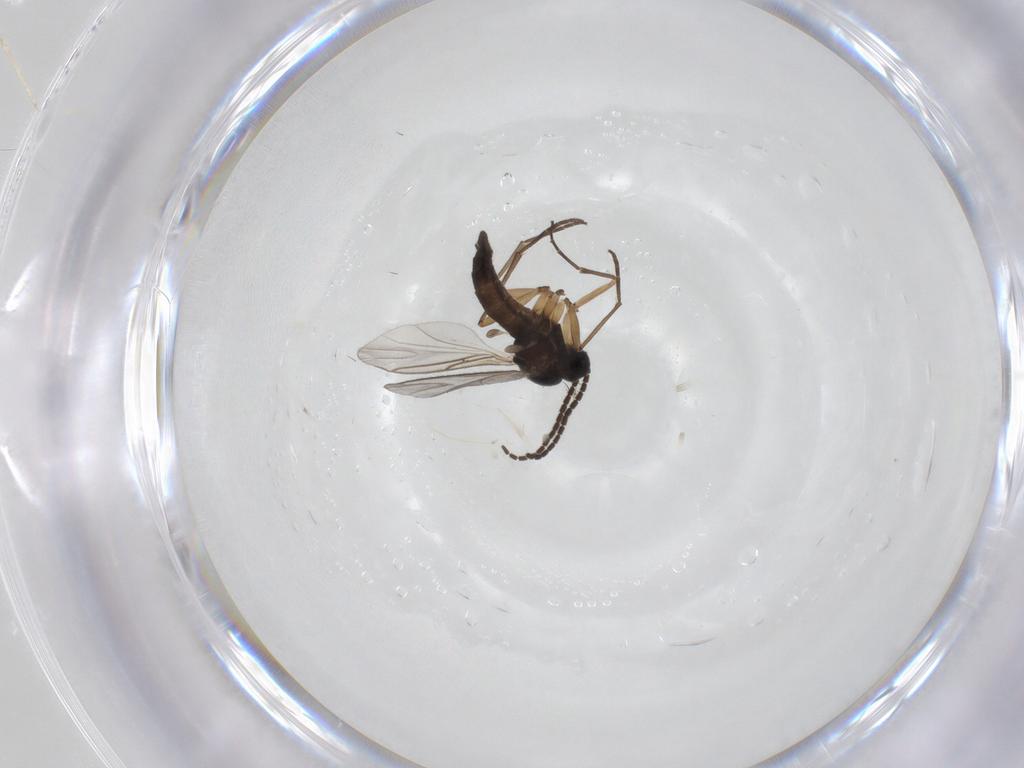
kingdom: Animalia
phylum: Arthropoda
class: Insecta
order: Diptera
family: Sciaridae
